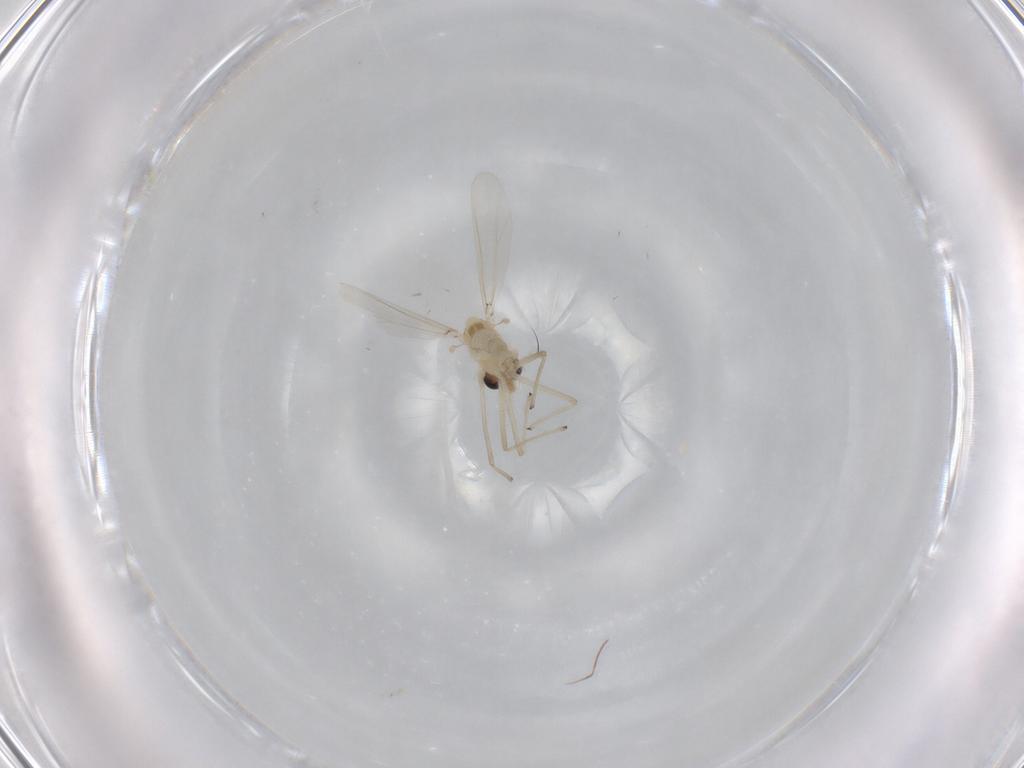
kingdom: Animalia
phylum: Arthropoda
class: Insecta
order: Diptera
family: Chironomidae
